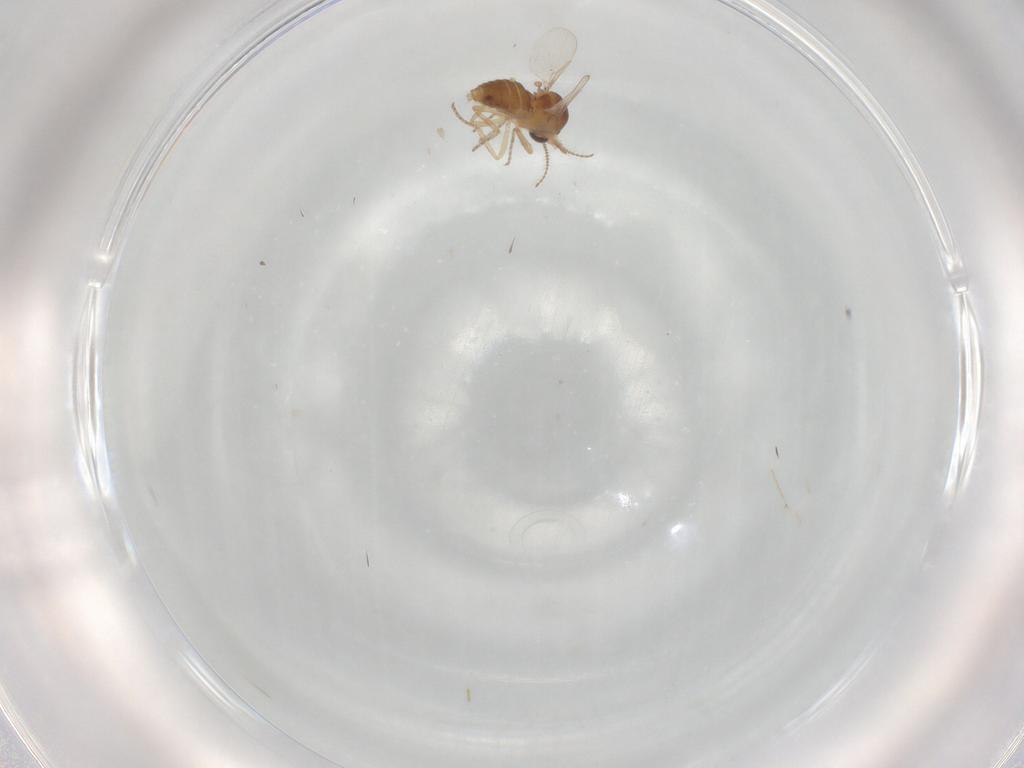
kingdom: Animalia
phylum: Arthropoda
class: Insecta
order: Diptera
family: Ceratopogonidae
